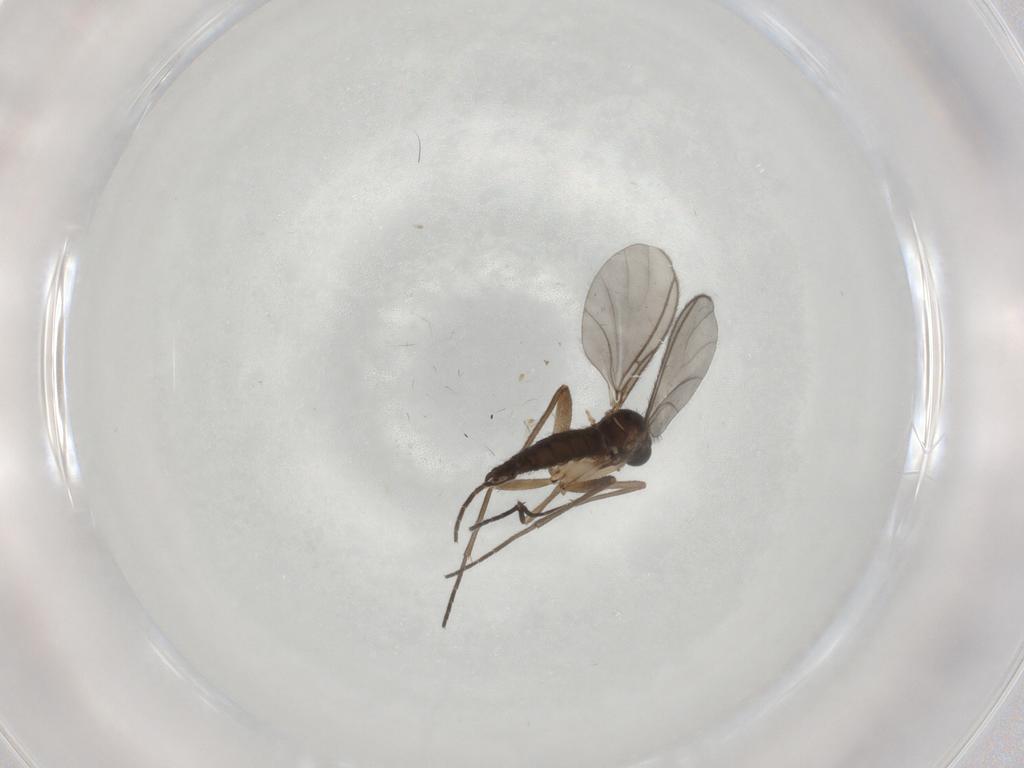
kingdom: Animalia
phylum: Arthropoda
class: Insecta
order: Diptera
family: Sciaridae
